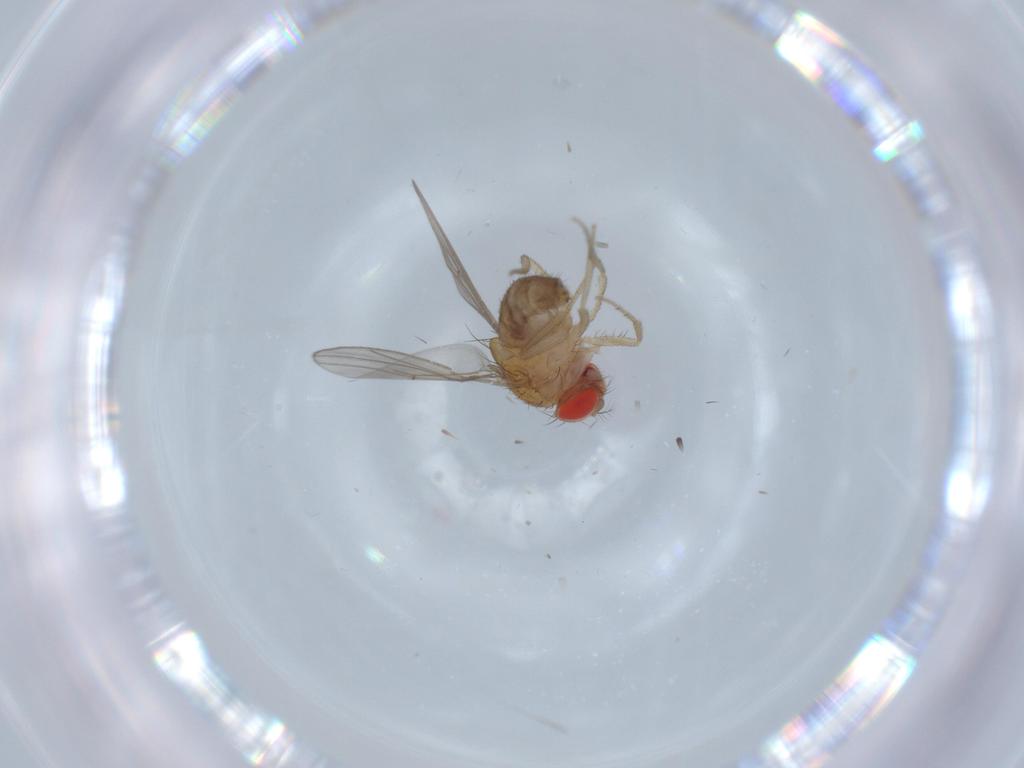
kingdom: Animalia
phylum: Arthropoda
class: Insecta
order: Diptera
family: Drosophilidae
